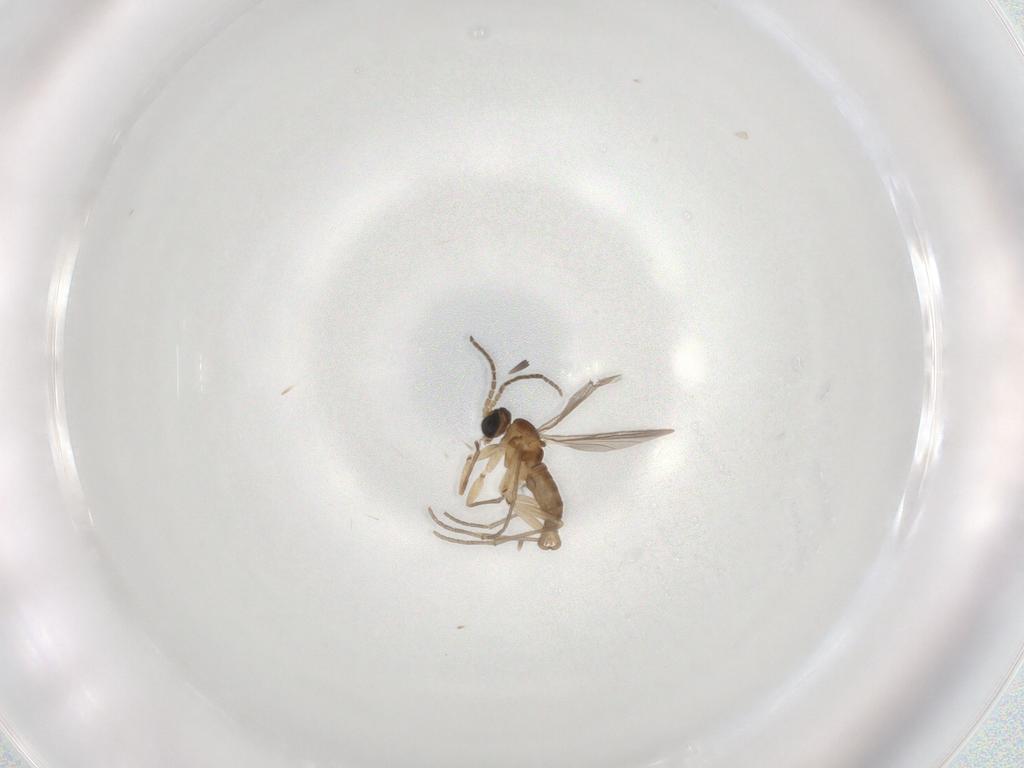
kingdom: Animalia
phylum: Arthropoda
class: Insecta
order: Diptera
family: Sciaridae
